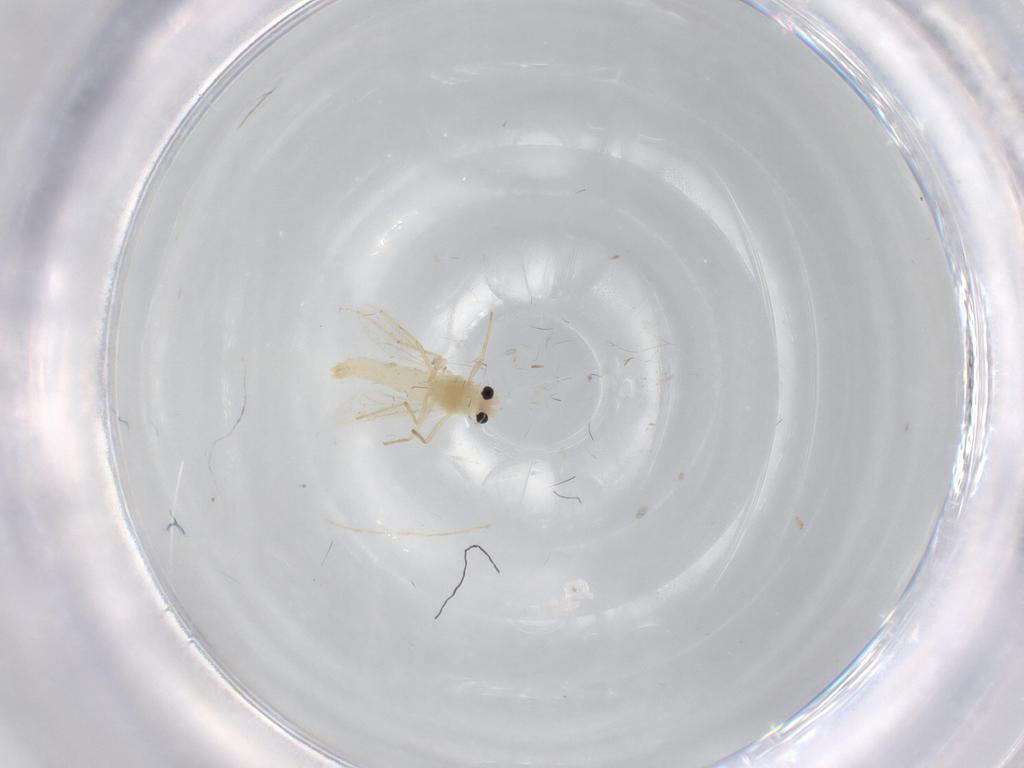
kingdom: Animalia
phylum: Arthropoda
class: Insecta
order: Diptera
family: Chironomidae
